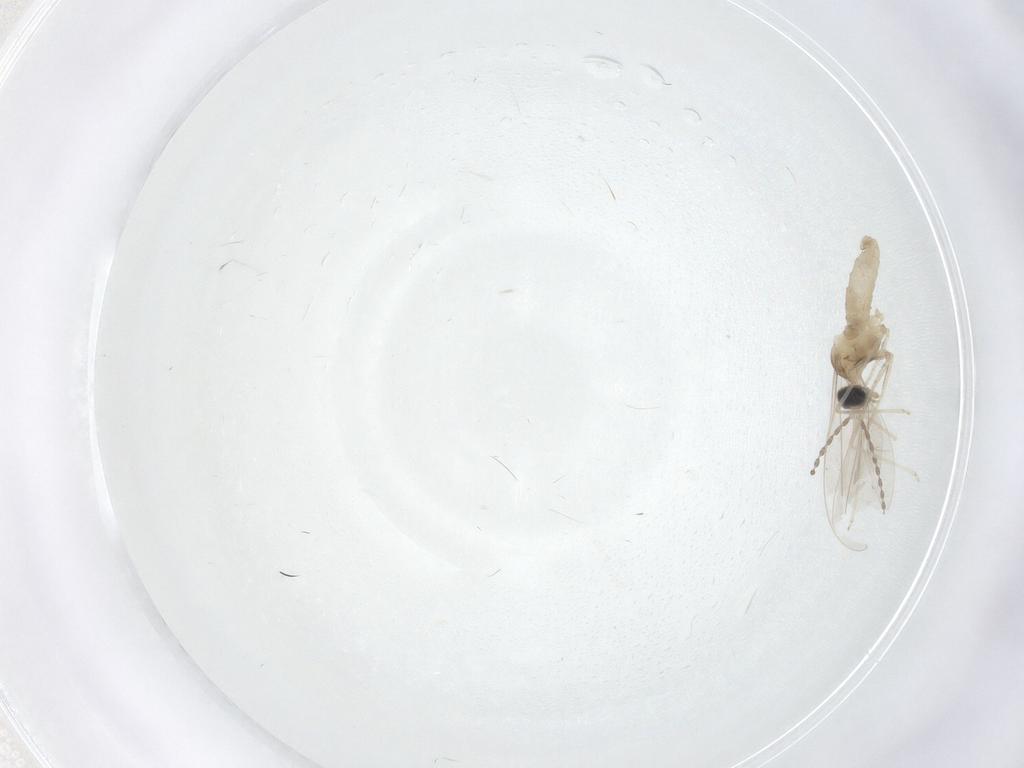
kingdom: Animalia
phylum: Arthropoda
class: Insecta
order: Diptera
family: Cecidomyiidae
